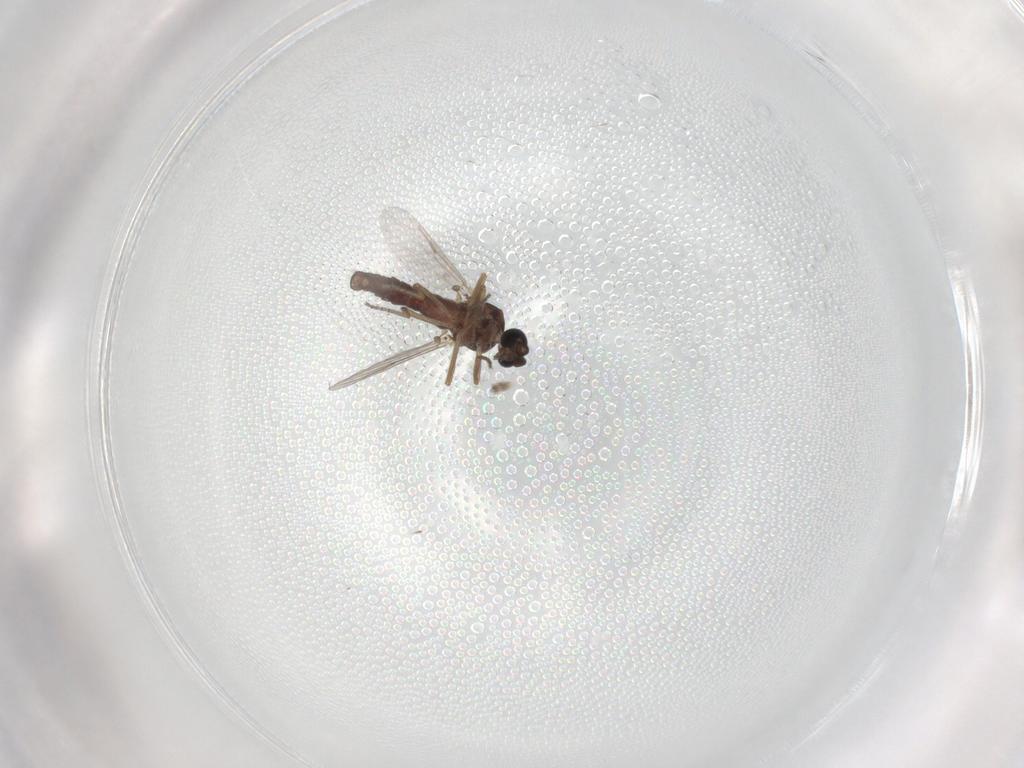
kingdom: Animalia
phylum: Arthropoda
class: Insecta
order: Diptera
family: Ceratopogonidae
